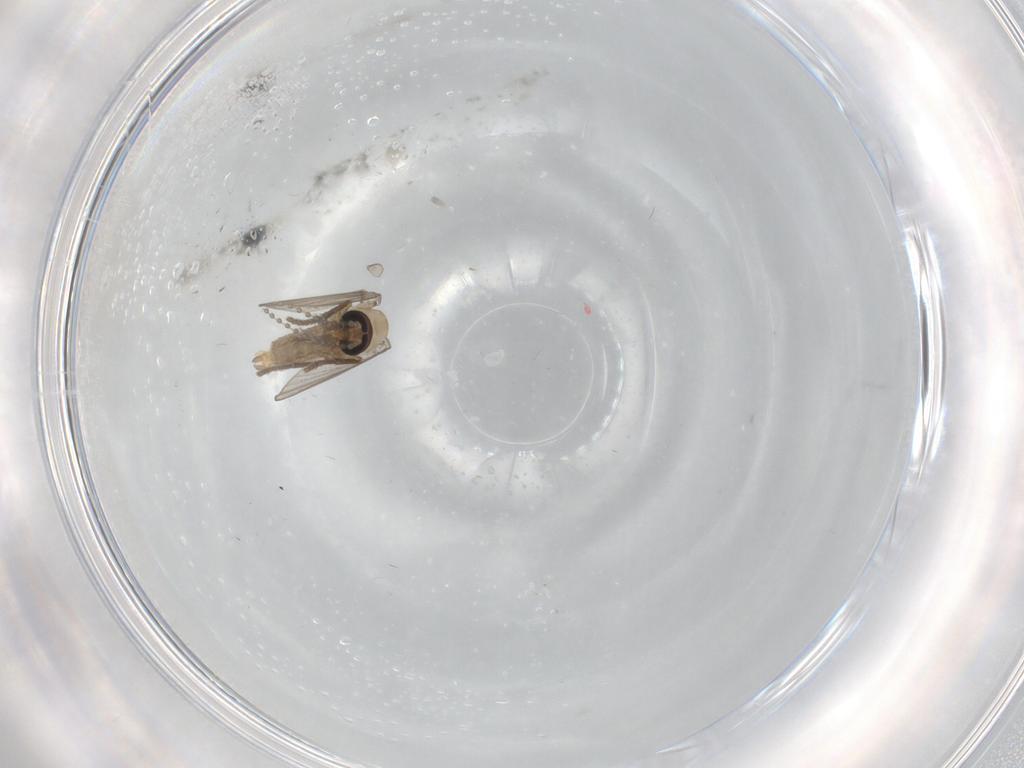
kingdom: Animalia
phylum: Arthropoda
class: Insecta
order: Diptera
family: Psychodidae
